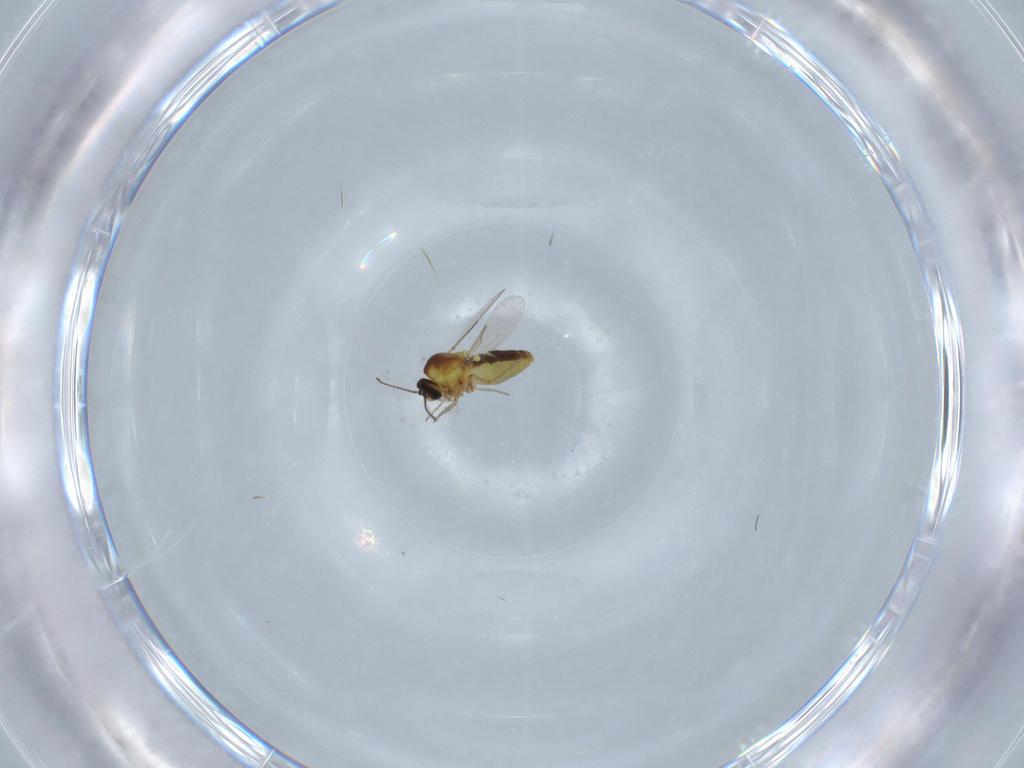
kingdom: Animalia
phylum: Arthropoda
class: Insecta
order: Diptera
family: Ceratopogonidae
